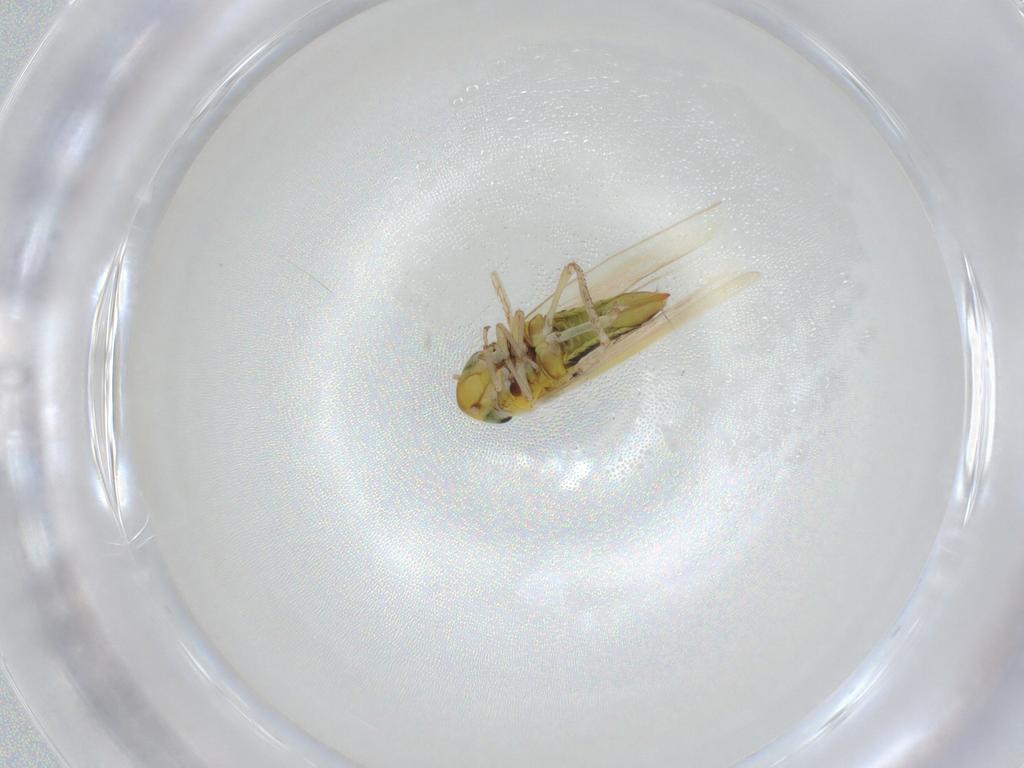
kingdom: Animalia
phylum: Arthropoda
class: Insecta
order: Hemiptera
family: Cicadellidae
